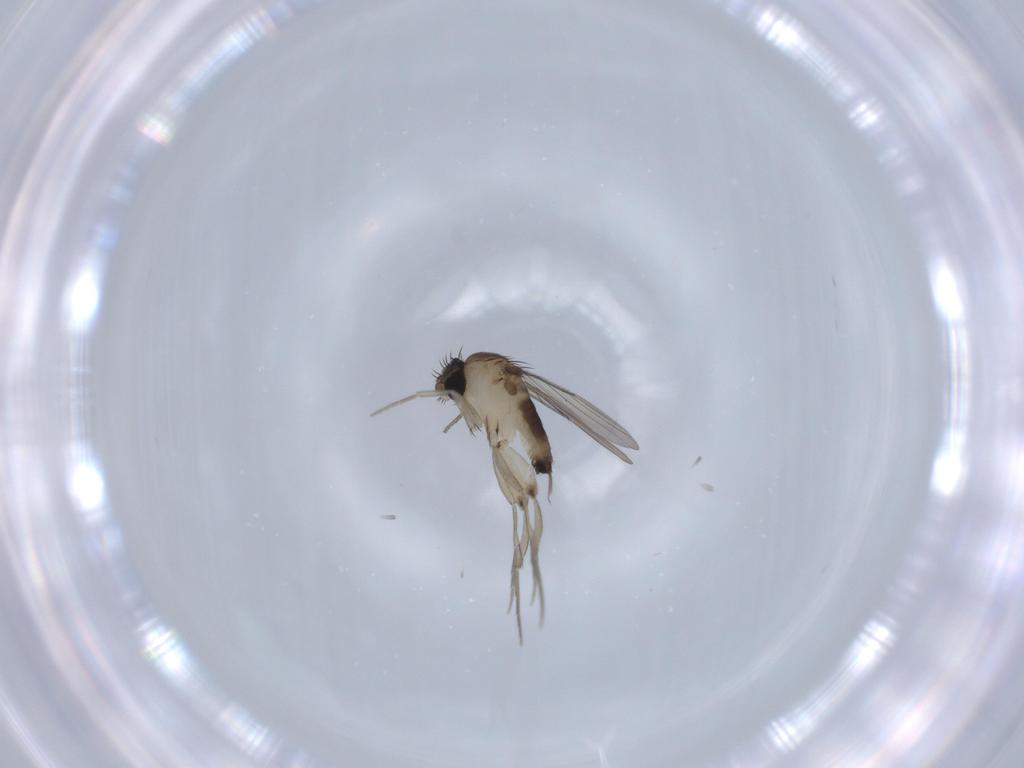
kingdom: Animalia
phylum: Arthropoda
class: Insecta
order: Diptera
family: Phoridae
